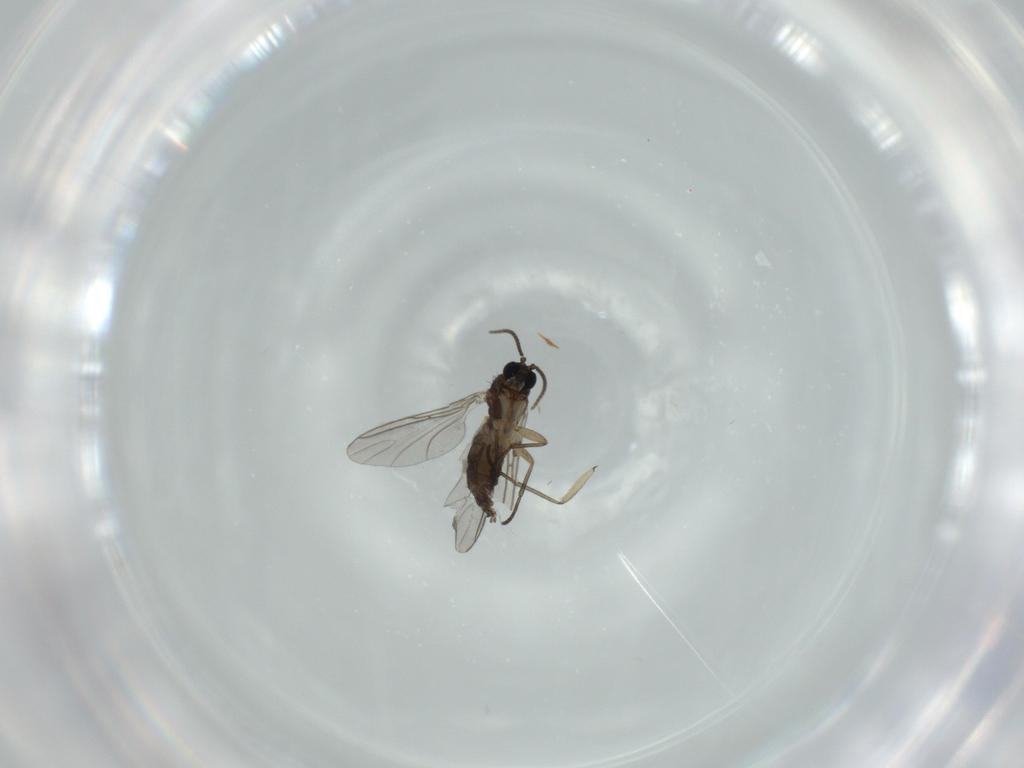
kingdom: Animalia
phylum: Arthropoda
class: Insecta
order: Diptera
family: Sciaridae
